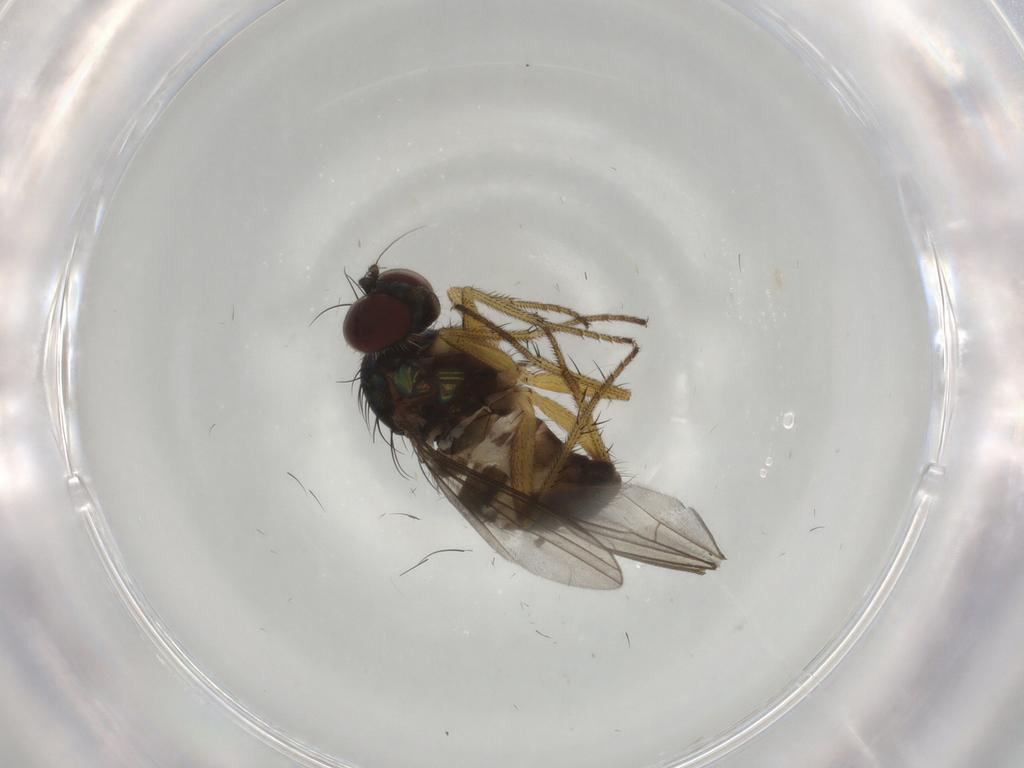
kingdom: Animalia
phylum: Arthropoda
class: Insecta
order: Diptera
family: Dolichopodidae
